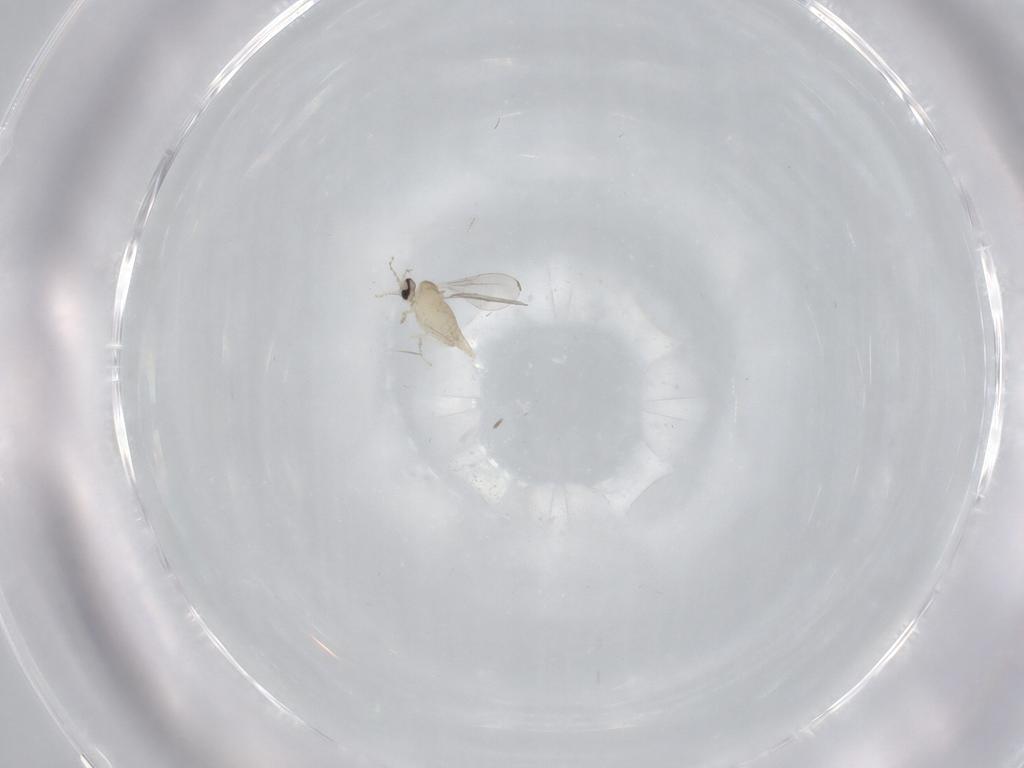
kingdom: Animalia
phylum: Arthropoda
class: Insecta
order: Diptera
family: Cecidomyiidae
